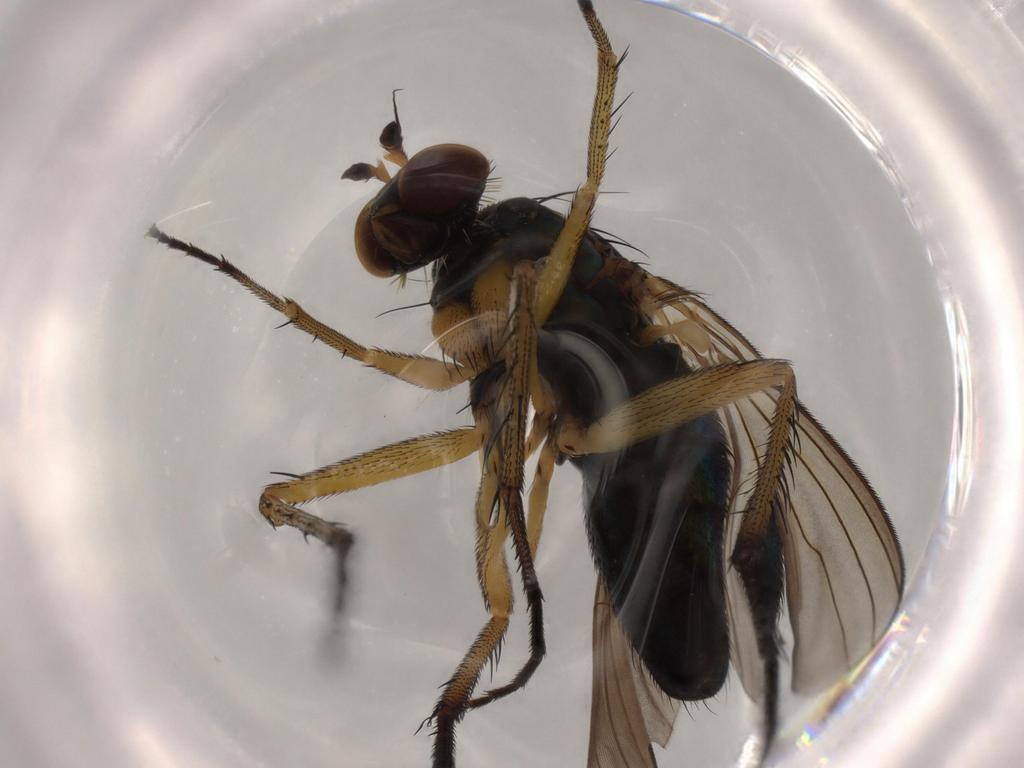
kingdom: Animalia
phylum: Arthropoda
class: Insecta
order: Diptera
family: Dolichopodidae
